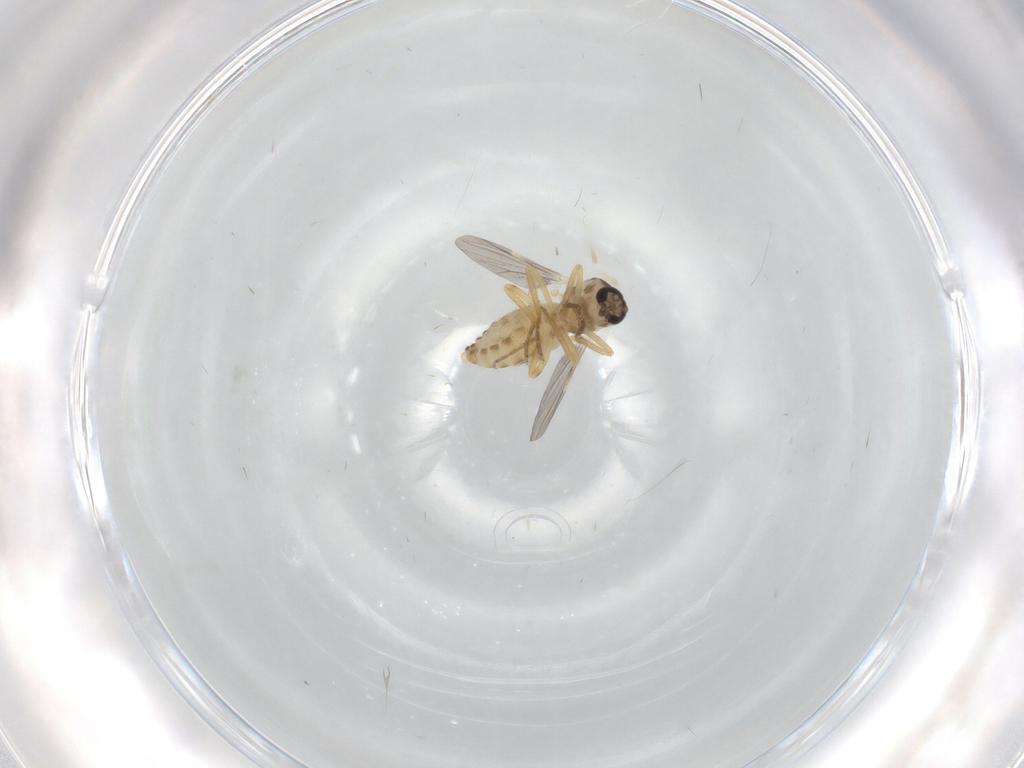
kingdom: Animalia
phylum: Arthropoda
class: Insecta
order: Diptera
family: Ceratopogonidae
